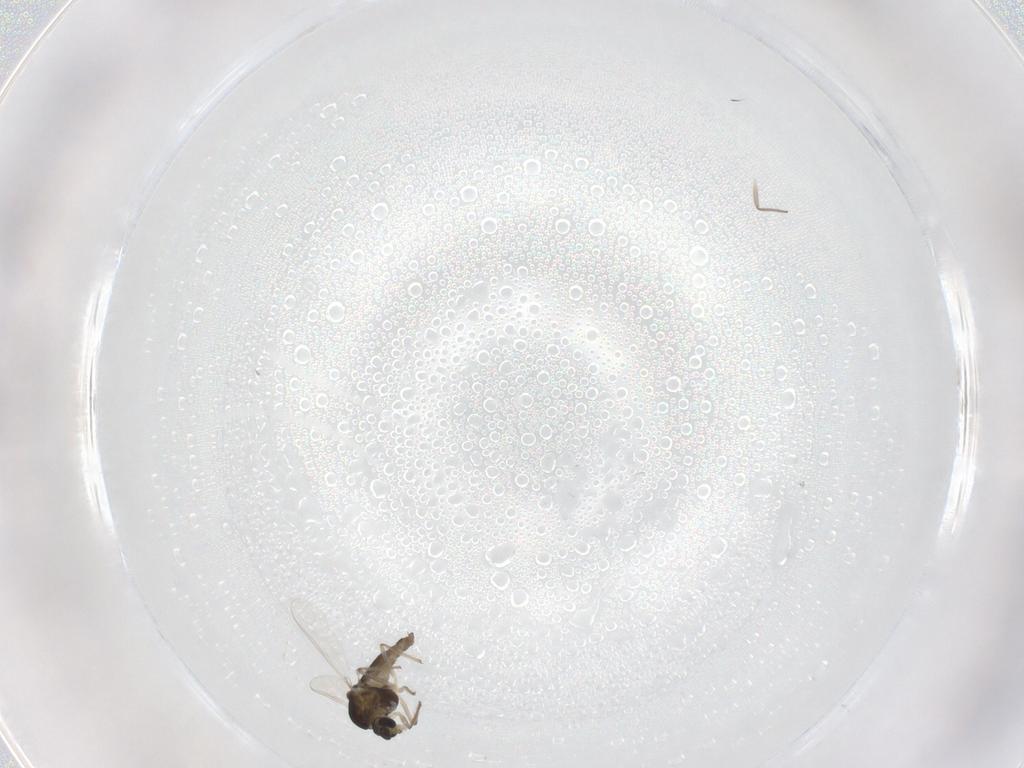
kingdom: Animalia
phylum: Arthropoda
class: Insecta
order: Diptera
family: Chironomidae
